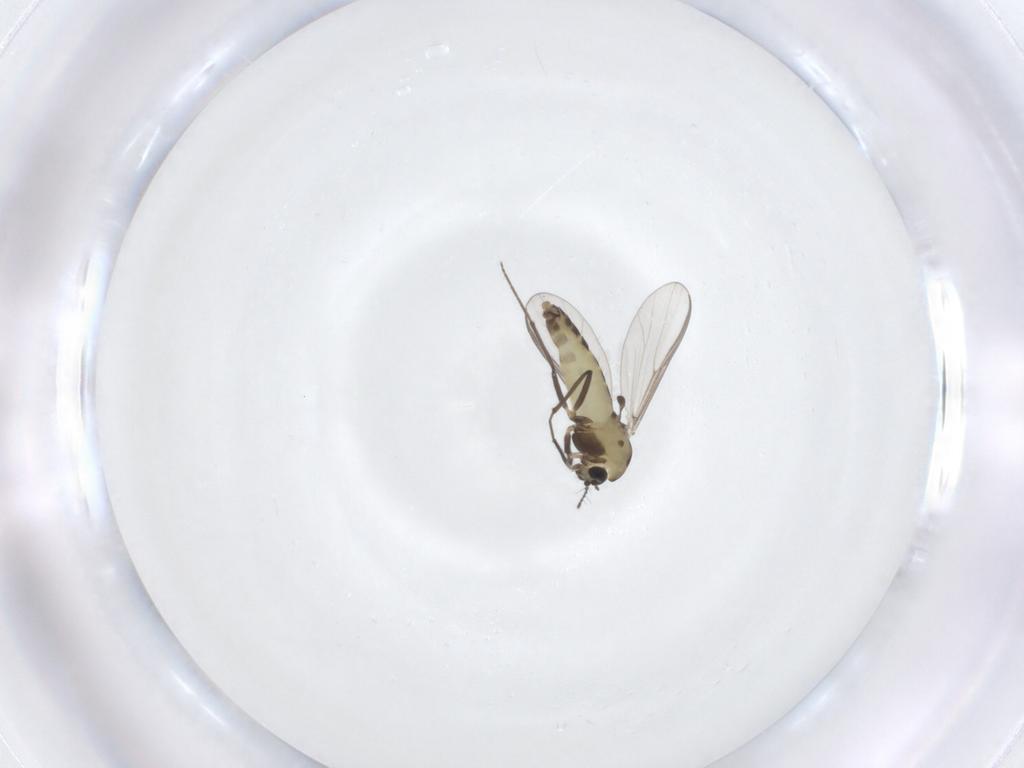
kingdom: Animalia
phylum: Arthropoda
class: Insecta
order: Diptera
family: Chironomidae
